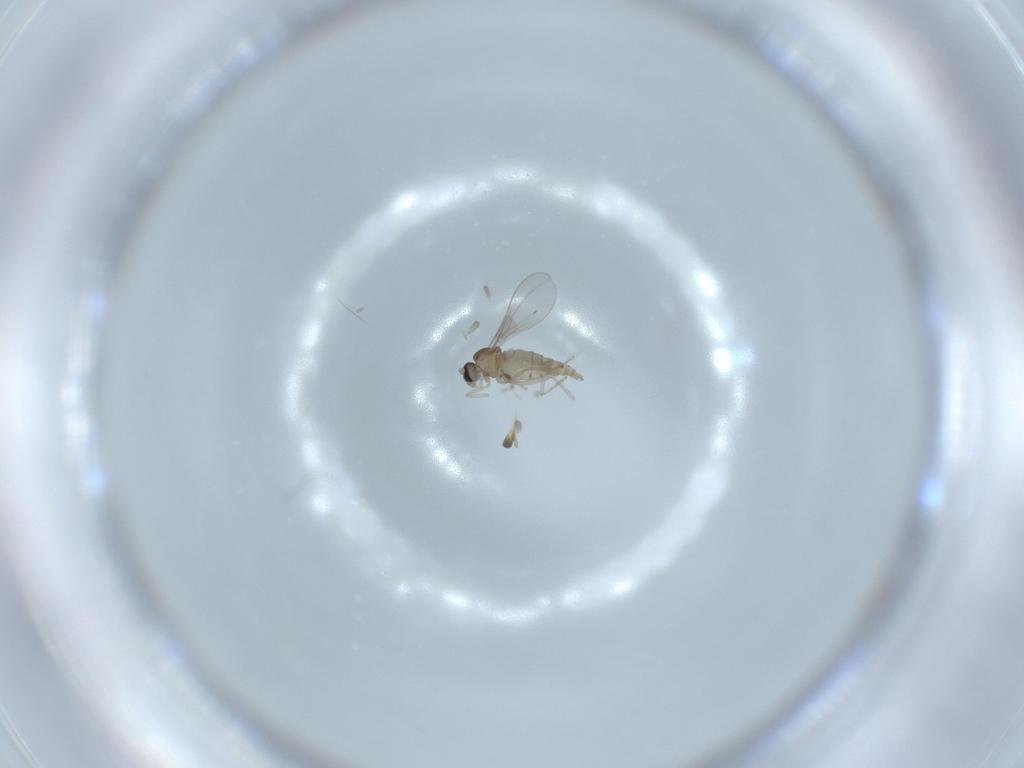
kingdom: Animalia
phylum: Arthropoda
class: Insecta
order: Diptera
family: Cecidomyiidae
